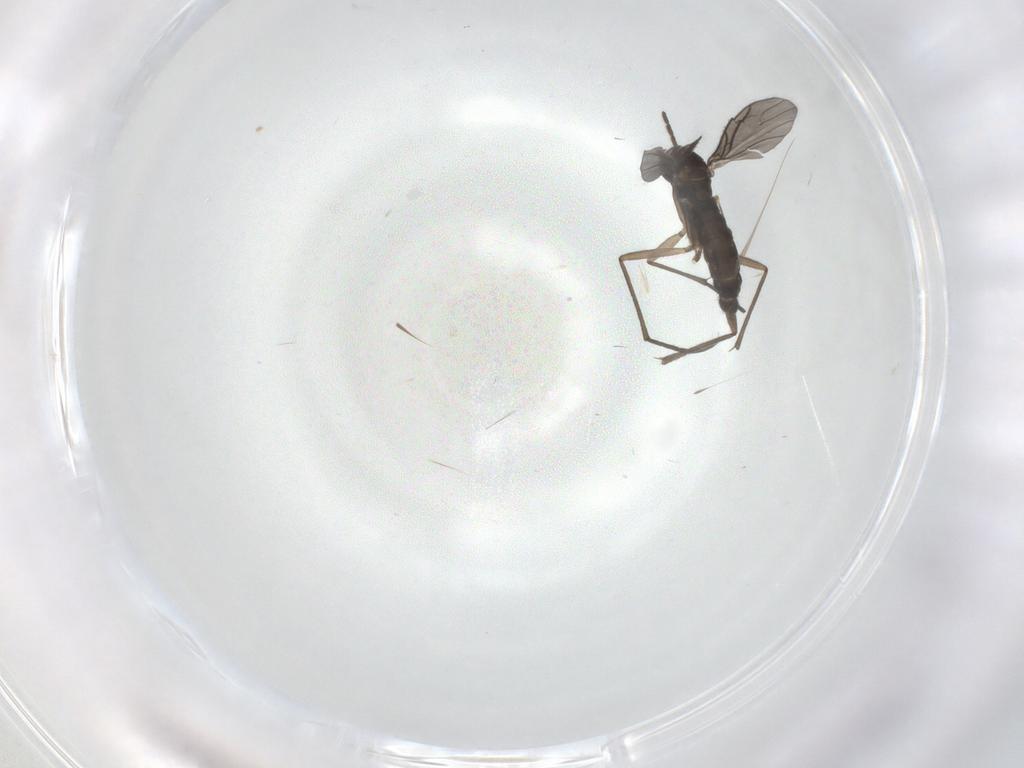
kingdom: Animalia
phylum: Arthropoda
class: Insecta
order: Diptera
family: Sciaridae
